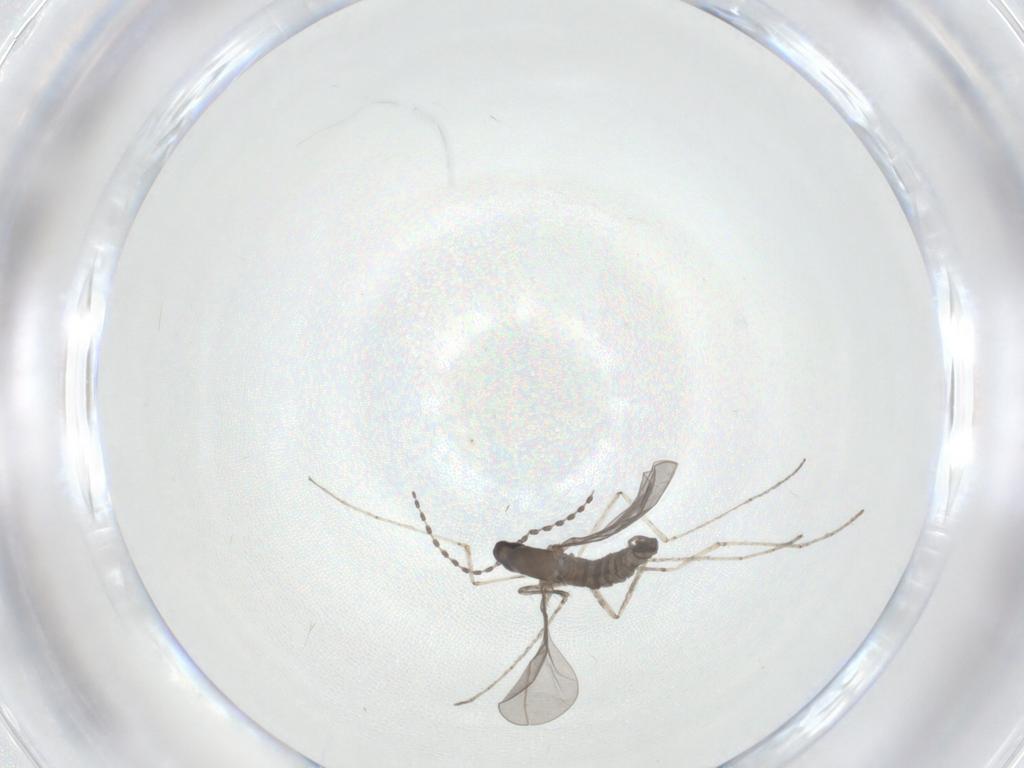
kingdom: Animalia
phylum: Arthropoda
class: Insecta
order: Diptera
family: Cecidomyiidae
